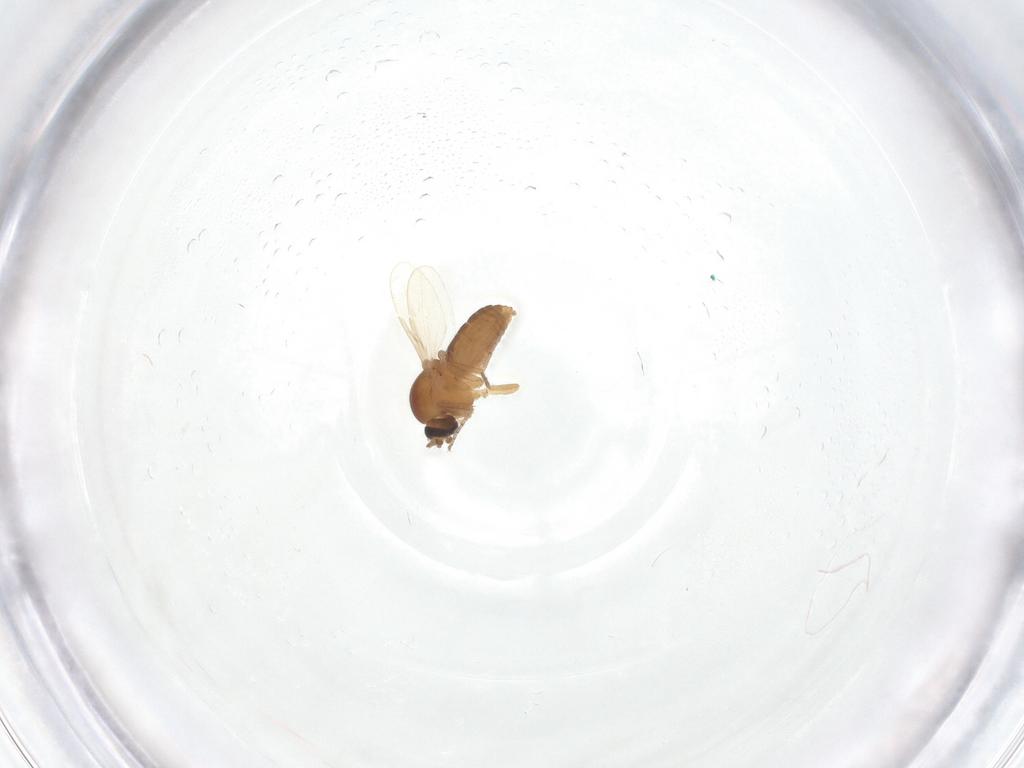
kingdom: Animalia
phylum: Arthropoda
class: Insecta
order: Diptera
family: Ceratopogonidae
